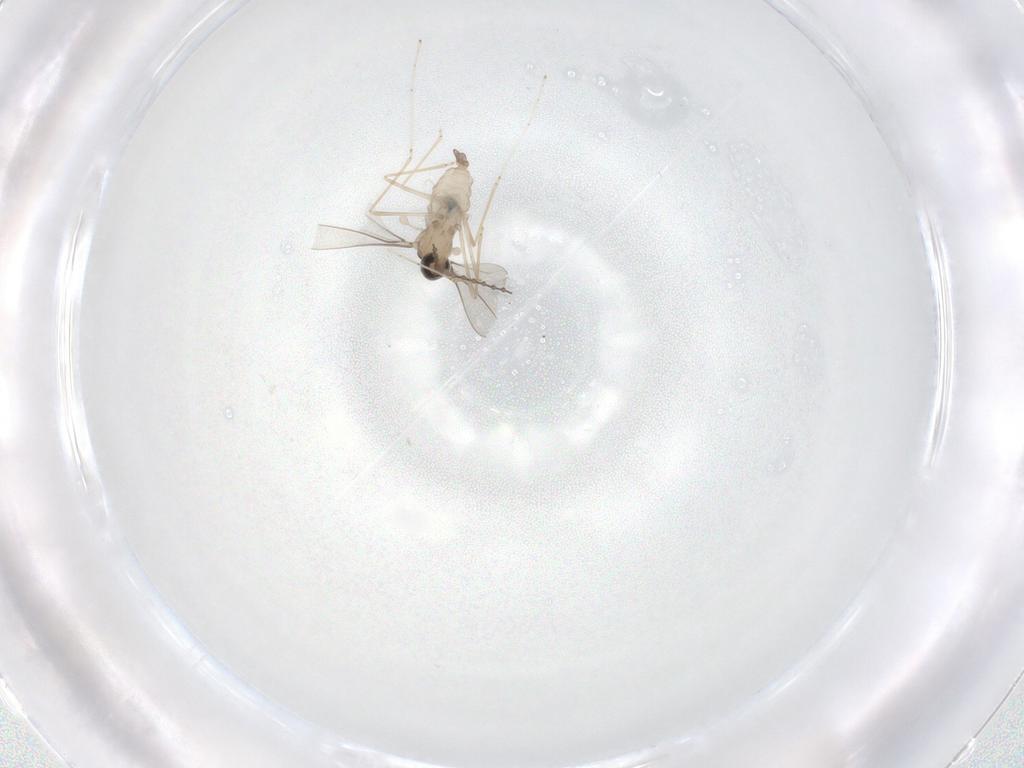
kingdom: Animalia
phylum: Arthropoda
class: Insecta
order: Diptera
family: Cecidomyiidae
